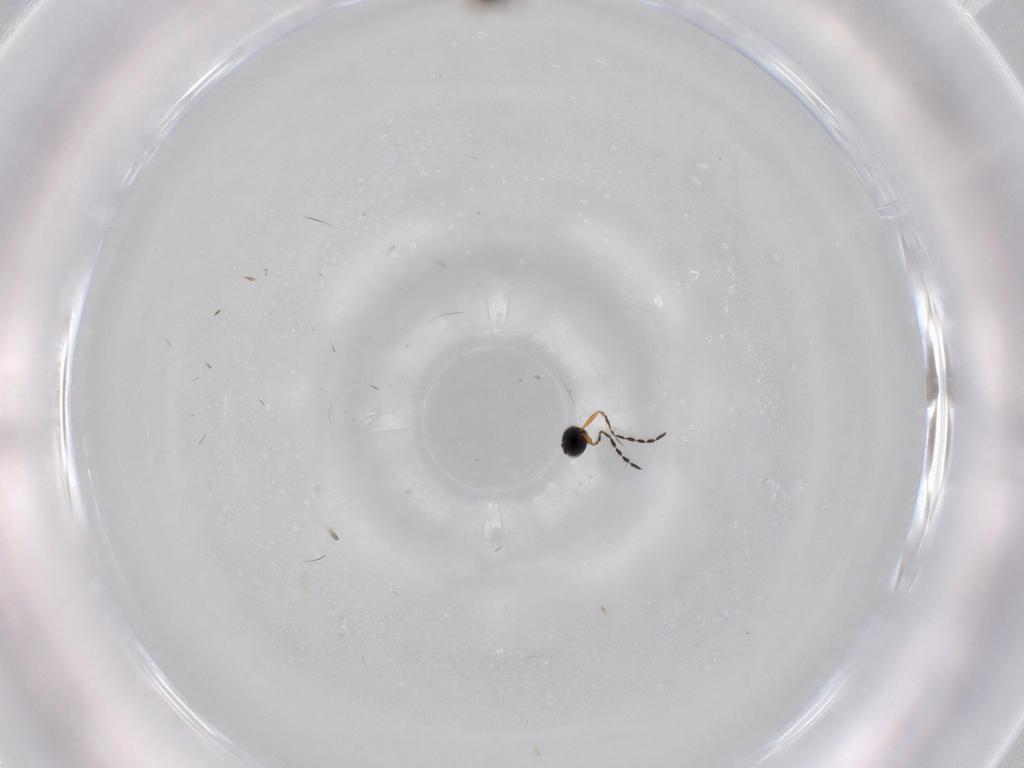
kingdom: Animalia
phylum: Arthropoda
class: Insecta
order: Hymenoptera
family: Platygastridae
